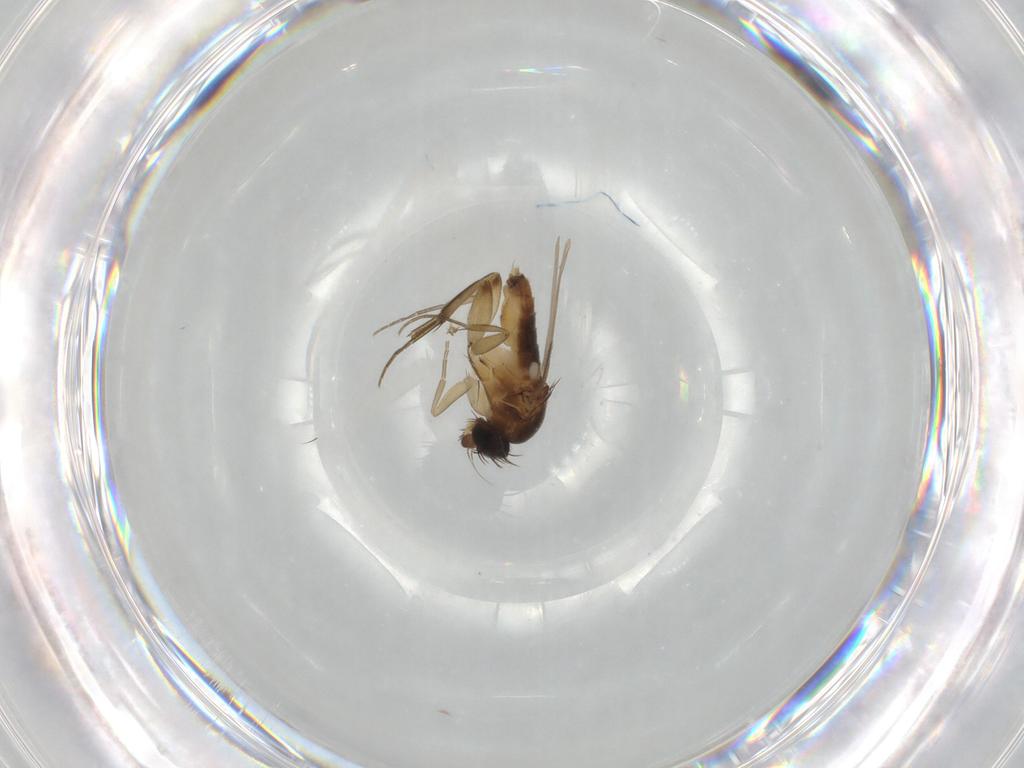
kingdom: Animalia
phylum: Arthropoda
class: Insecta
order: Diptera
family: Phoridae
